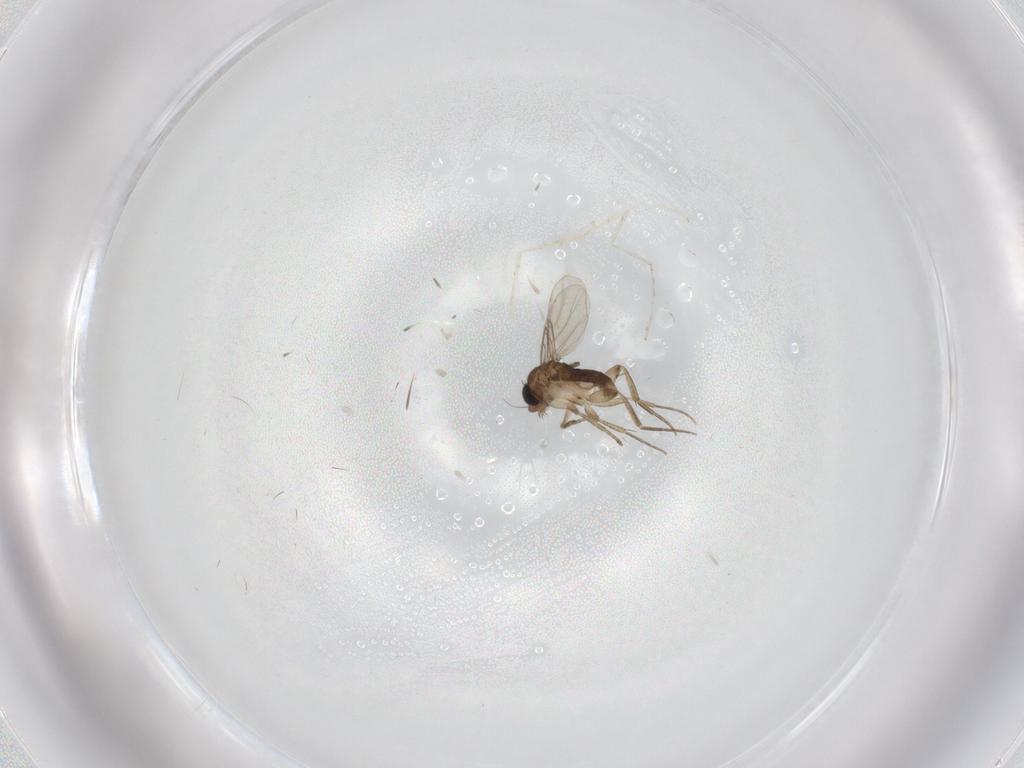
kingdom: Animalia
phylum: Arthropoda
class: Insecta
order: Diptera
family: Cecidomyiidae
